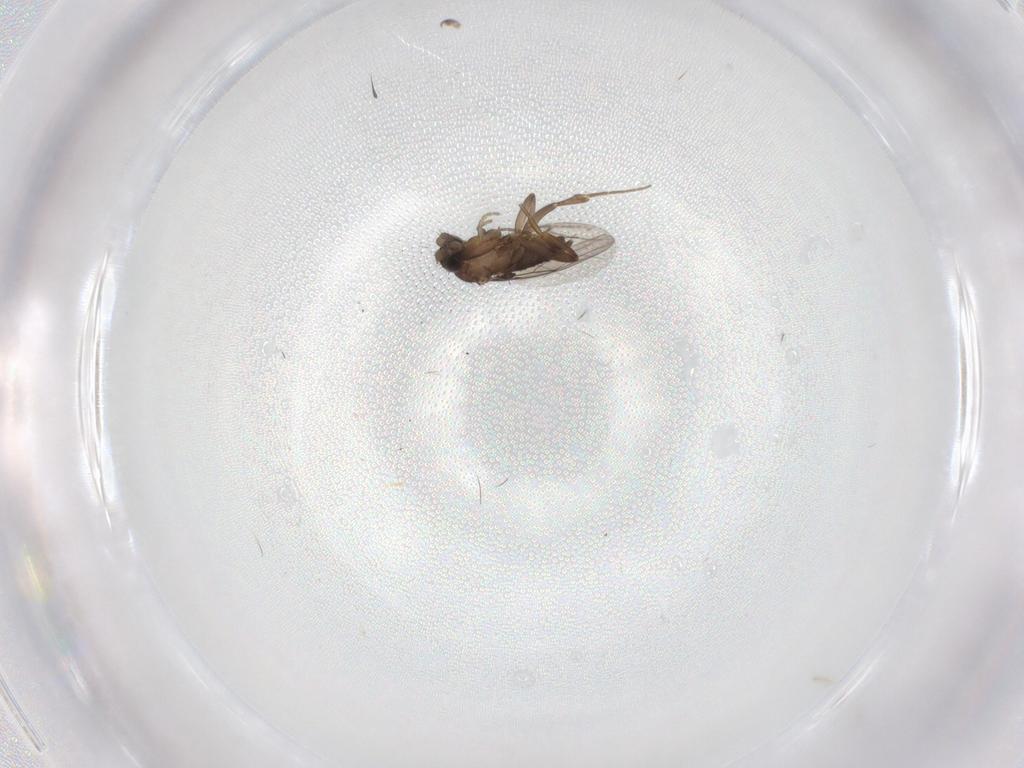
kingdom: Animalia
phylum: Arthropoda
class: Insecta
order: Diptera
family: Phoridae
